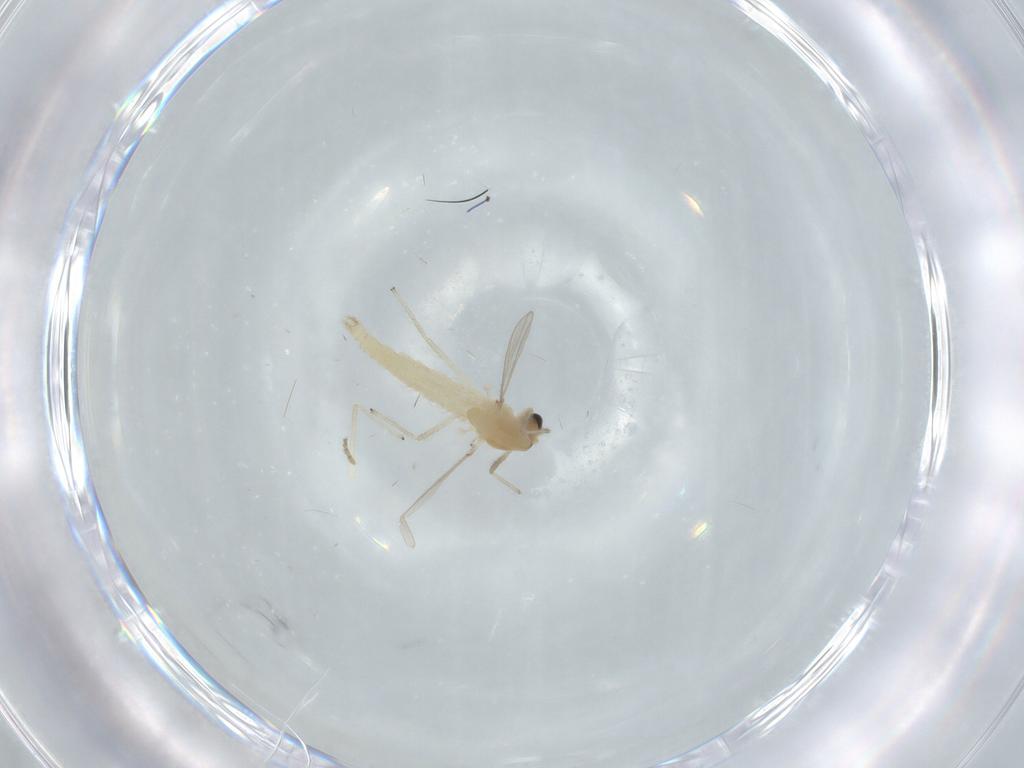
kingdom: Animalia
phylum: Arthropoda
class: Insecta
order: Diptera
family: Chironomidae
